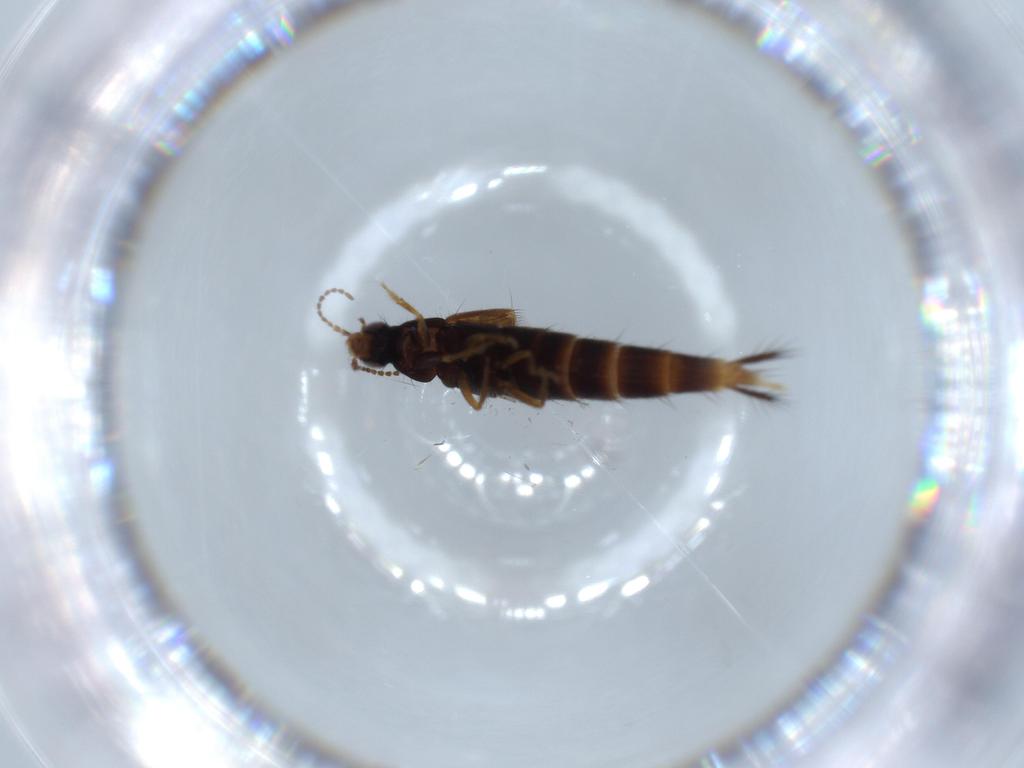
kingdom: Animalia
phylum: Arthropoda
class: Insecta
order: Coleoptera
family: Staphylinidae
